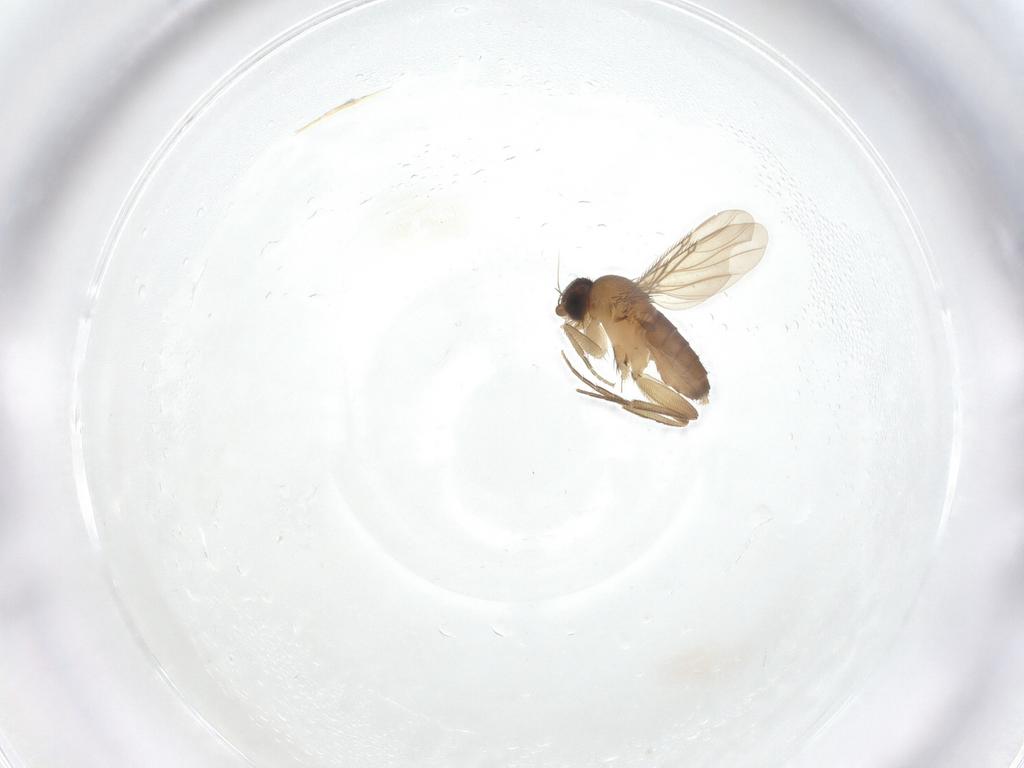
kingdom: Animalia
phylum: Arthropoda
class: Insecta
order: Diptera
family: Phoridae
